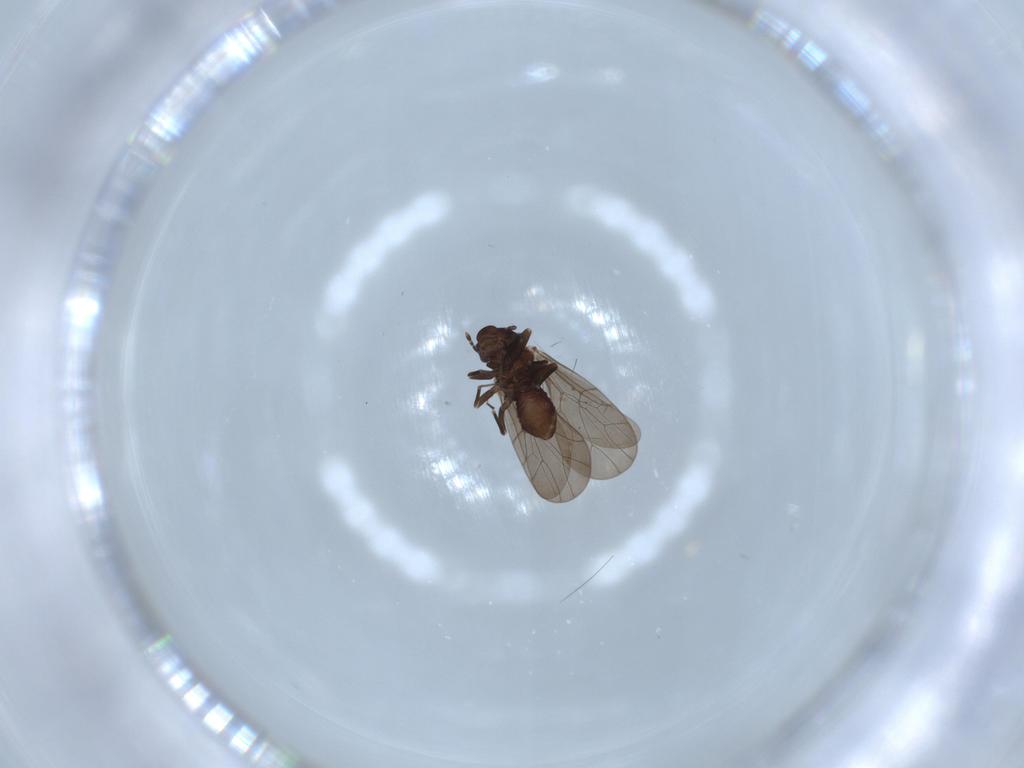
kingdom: Animalia
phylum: Arthropoda
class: Insecta
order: Psocodea
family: Lepidopsocidae
